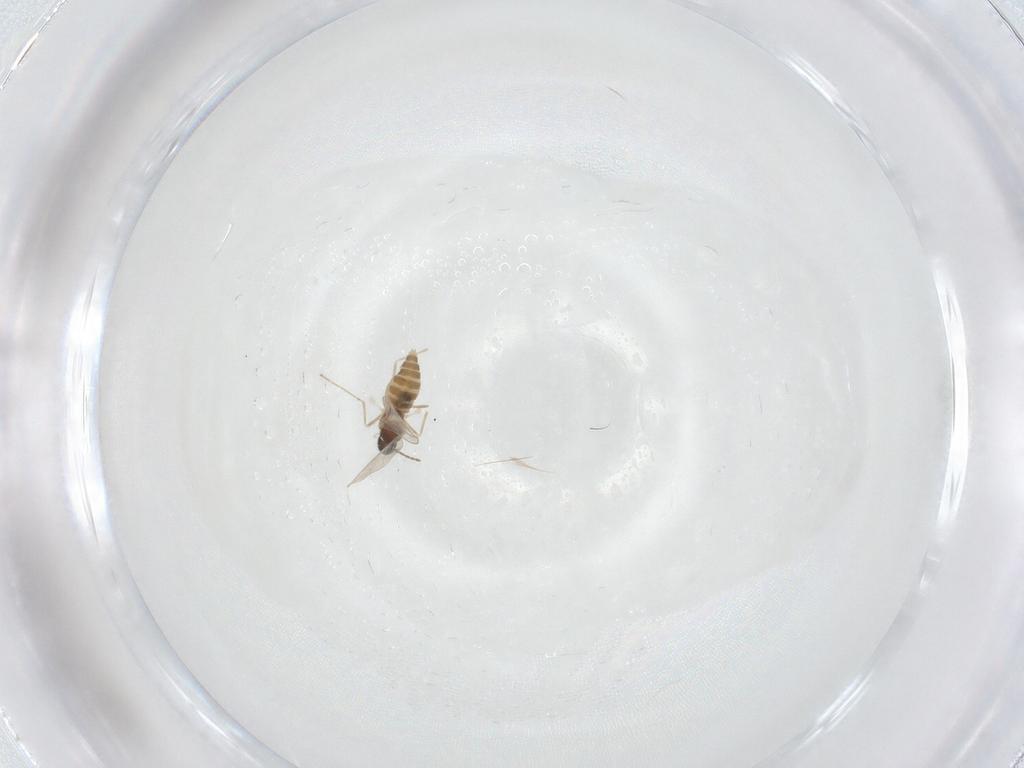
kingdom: Animalia
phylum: Arthropoda
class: Insecta
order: Diptera
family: Cecidomyiidae
